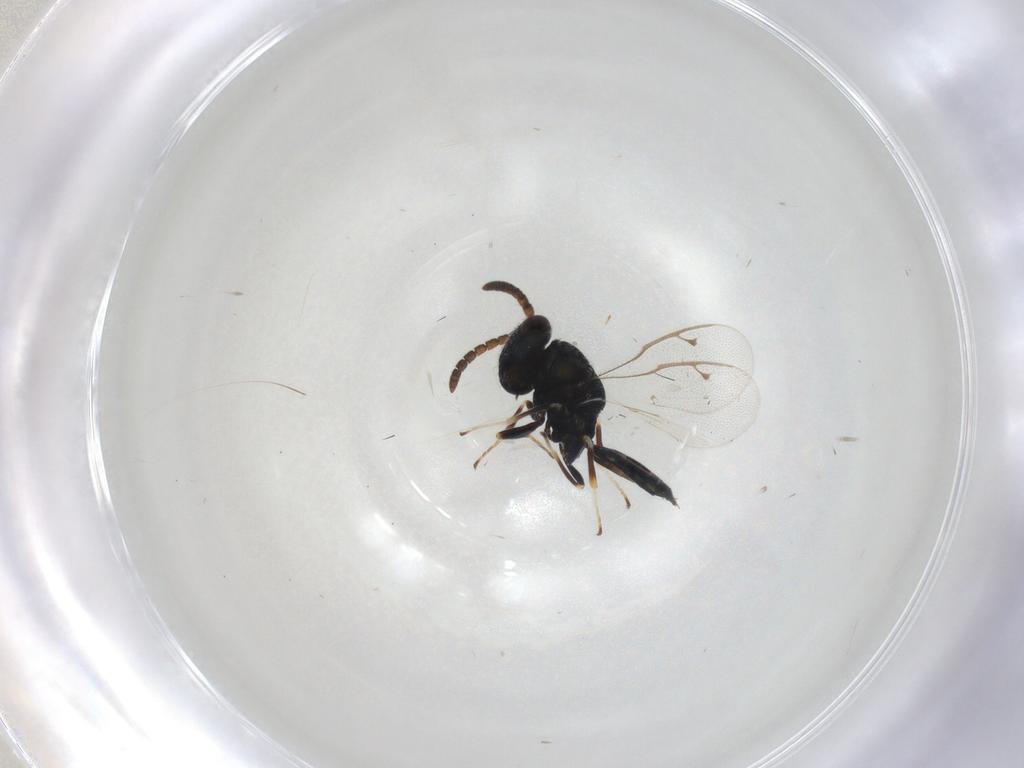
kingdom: Animalia
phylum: Arthropoda
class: Insecta
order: Hymenoptera
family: Pteromalidae
